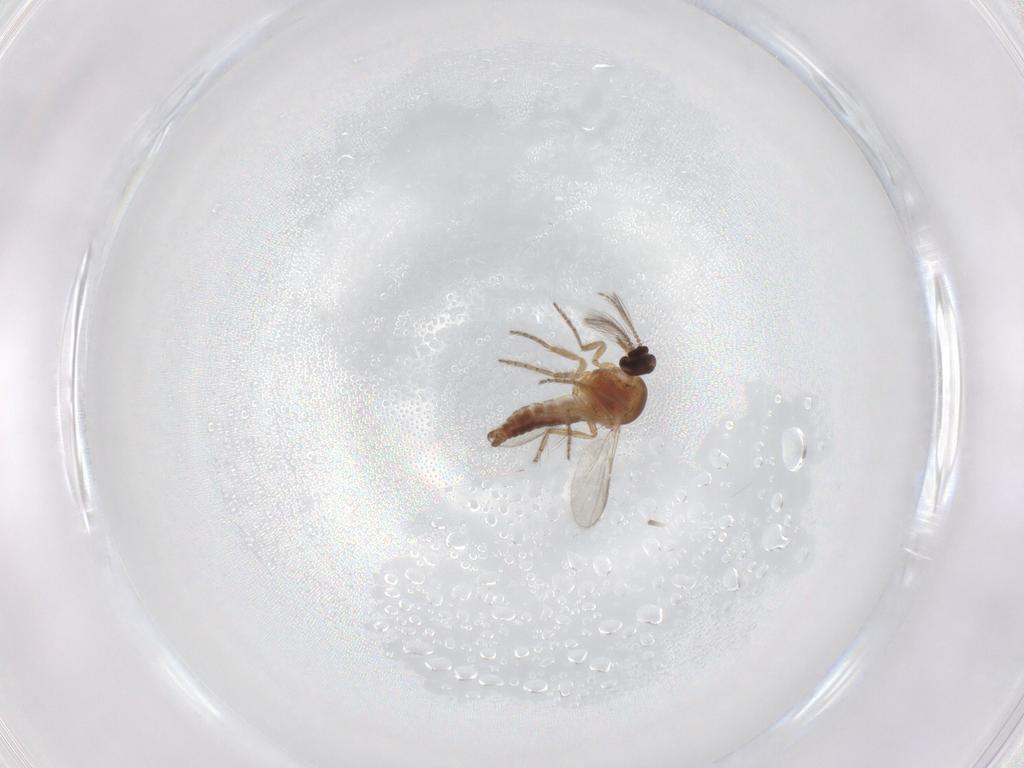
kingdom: Animalia
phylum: Arthropoda
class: Insecta
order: Diptera
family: Ceratopogonidae
